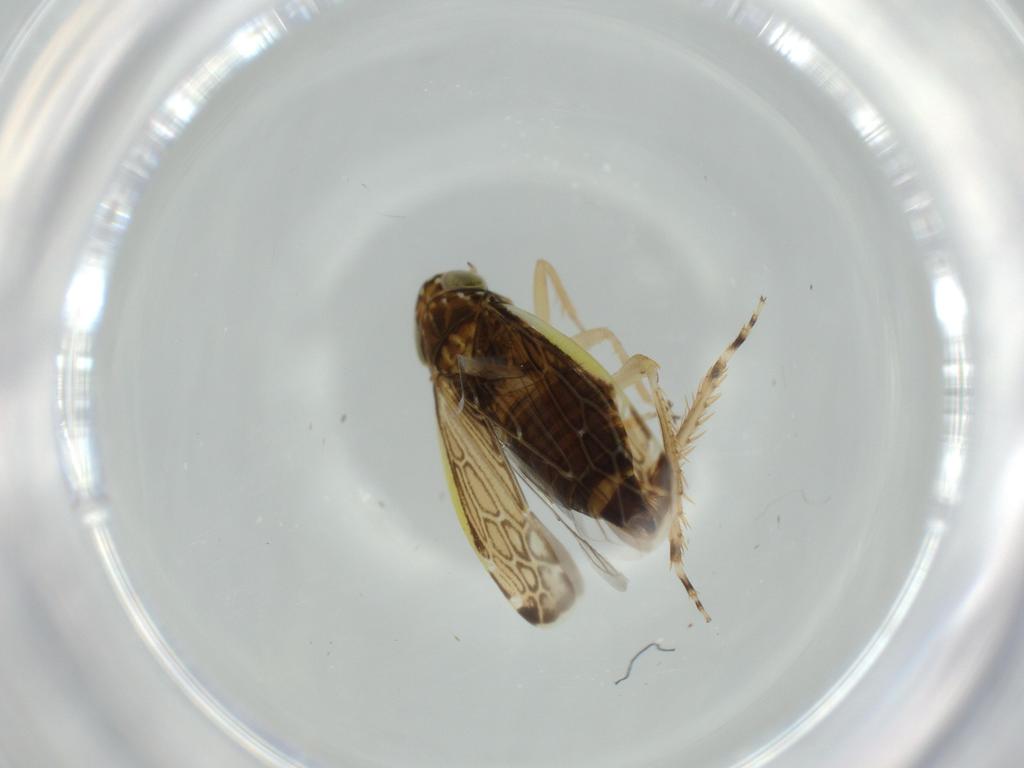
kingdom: Animalia
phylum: Arthropoda
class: Insecta
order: Hemiptera
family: Cicadellidae
